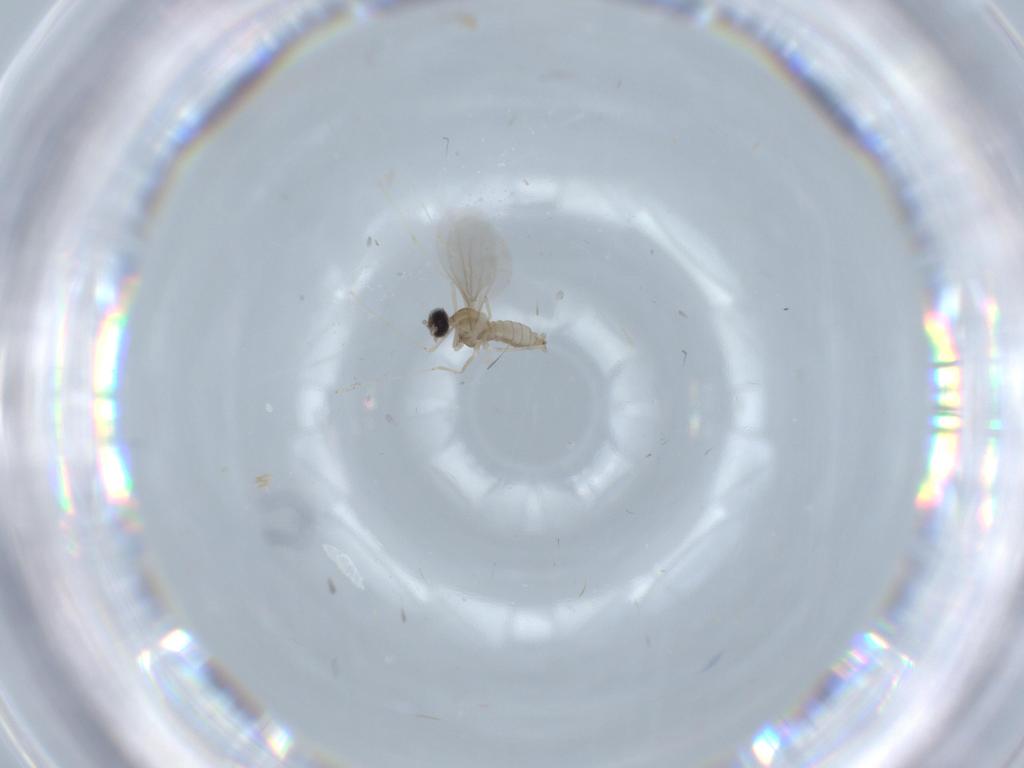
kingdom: Animalia
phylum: Arthropoda
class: Insecta
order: Diptera
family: Cecidomyiidae
